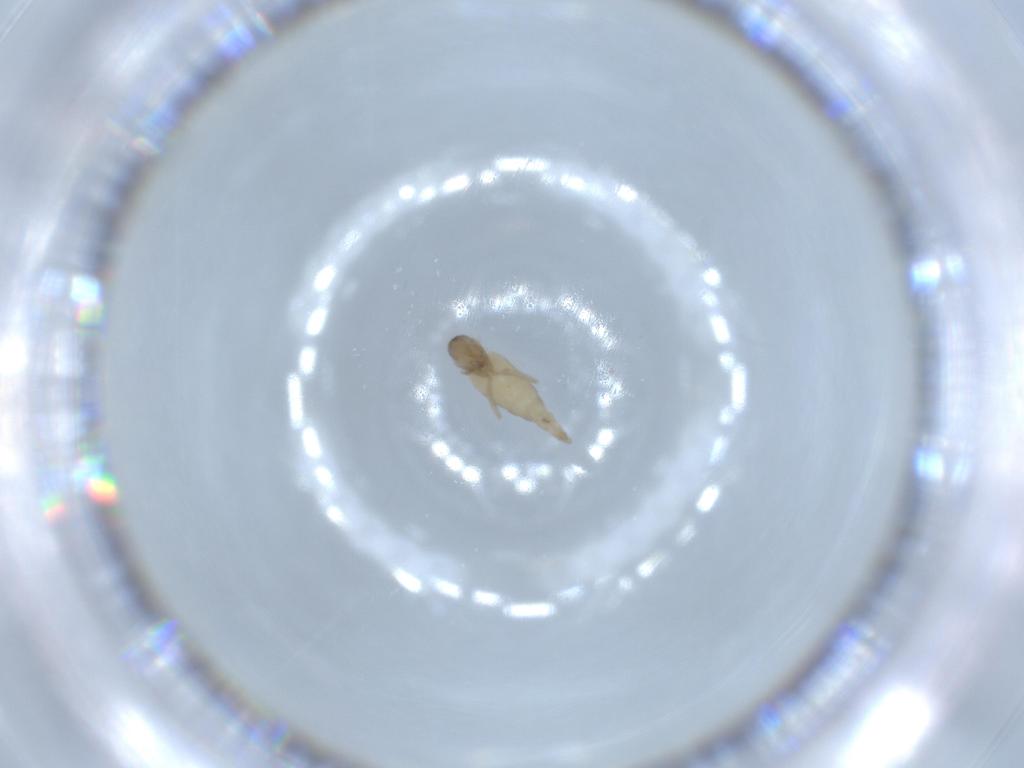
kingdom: Animalia
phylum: Arthropoda
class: Insecta
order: Diptera
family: Cecidomyiidae
